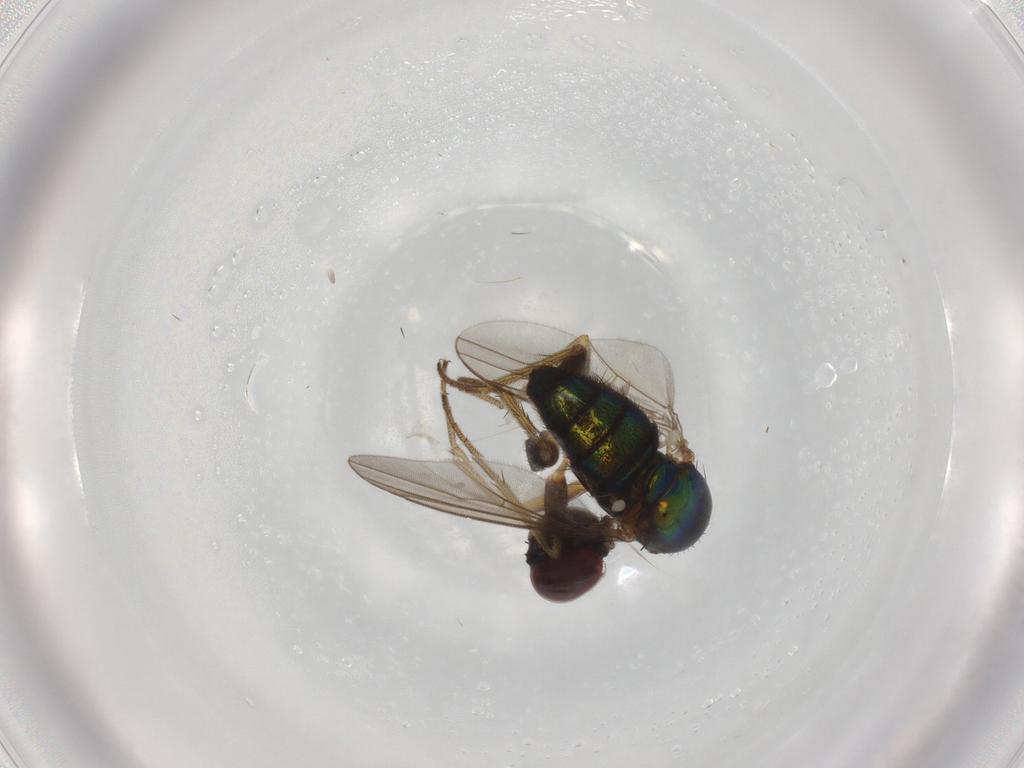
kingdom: Animalia
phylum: Arthropoda
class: Insecta
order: Diptera
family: Dolichopodidae
